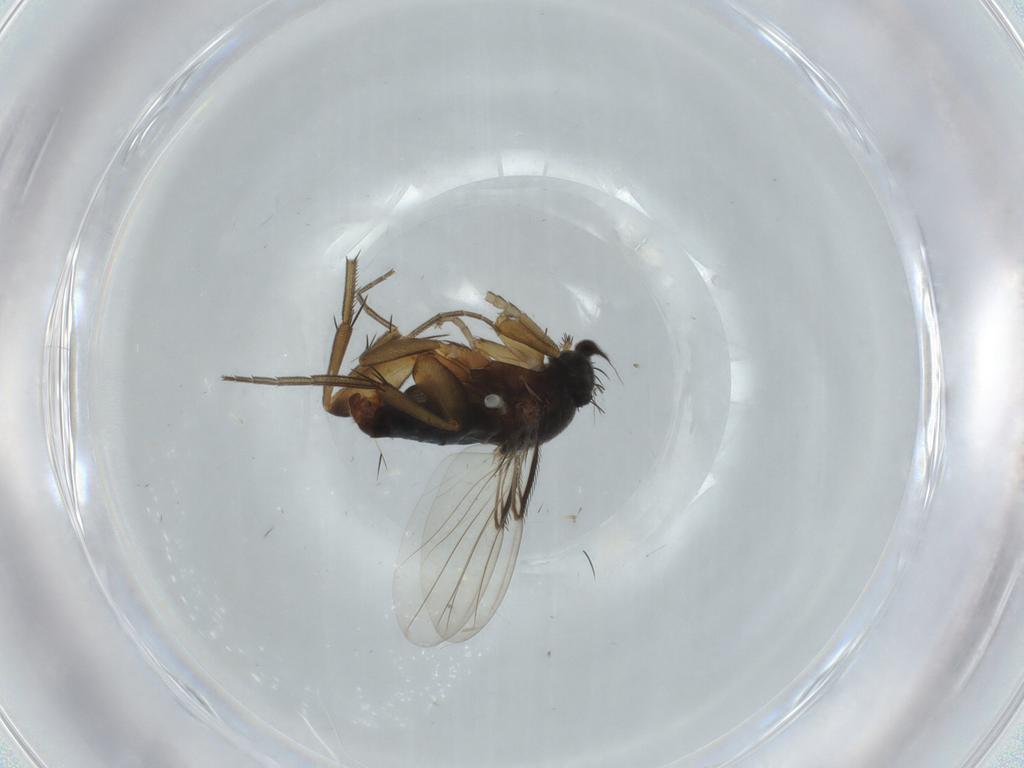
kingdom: Animalia
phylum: Arthropoda
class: Insecta
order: Diptera
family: Phoridae
